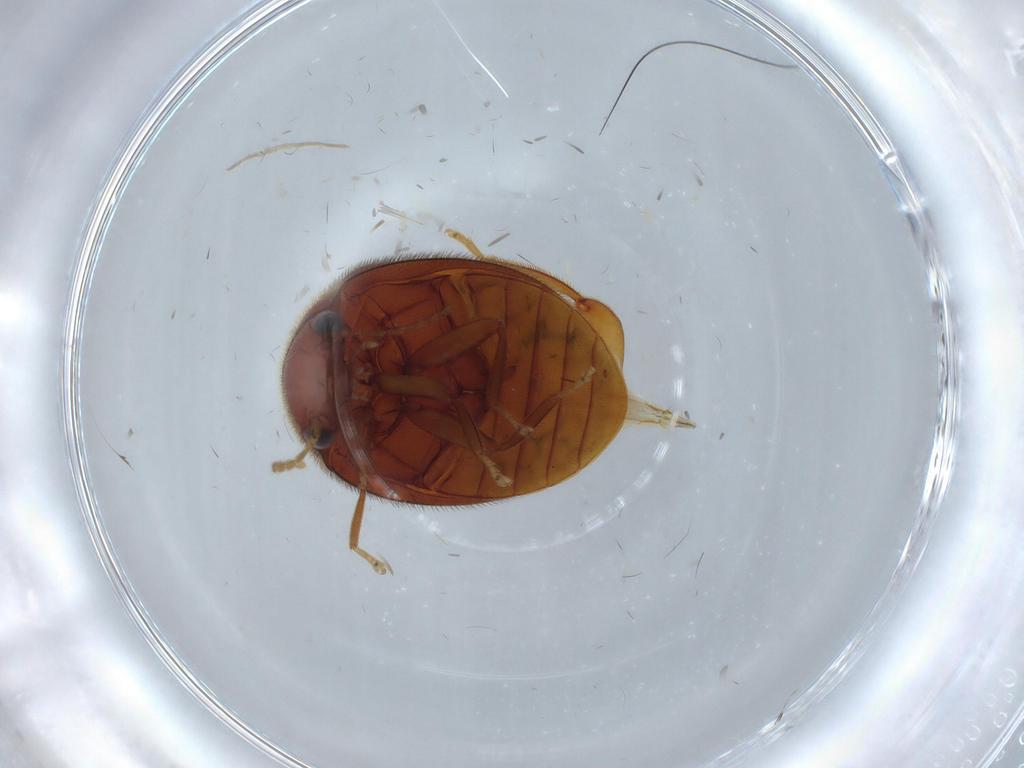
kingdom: Animalia
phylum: Arthropoda
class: Insecta
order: Coleoptera
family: Scirtidae
